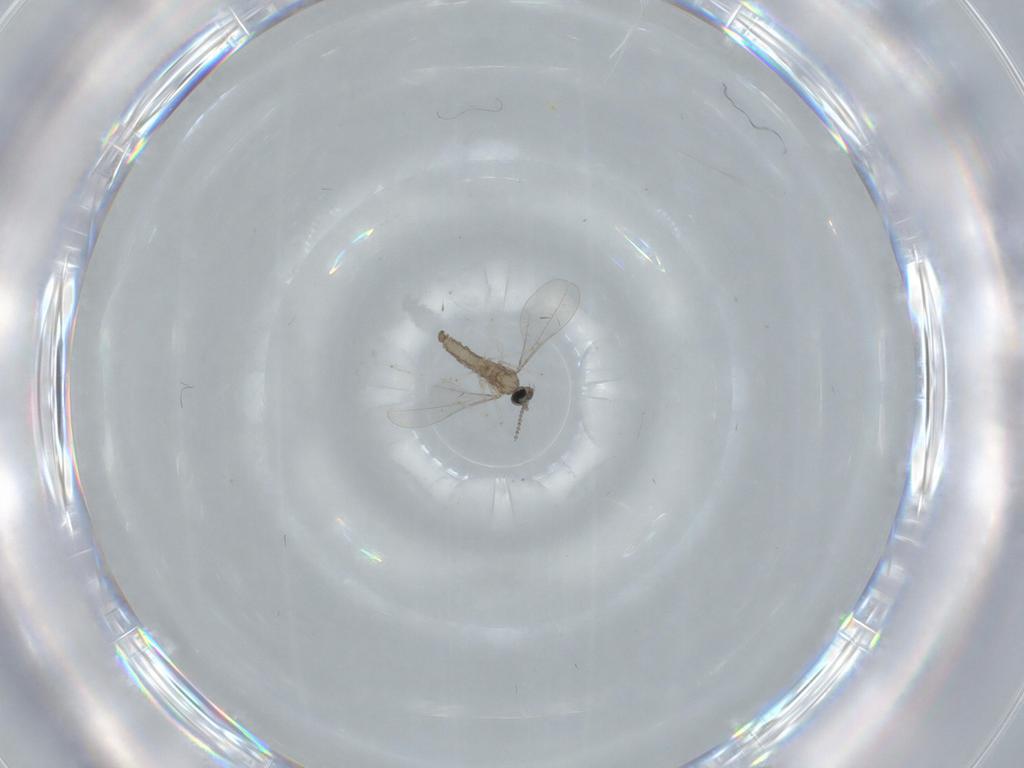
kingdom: Animalia
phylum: Arthropoda
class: Insecta
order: Diptera
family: Cecidomyiidae
